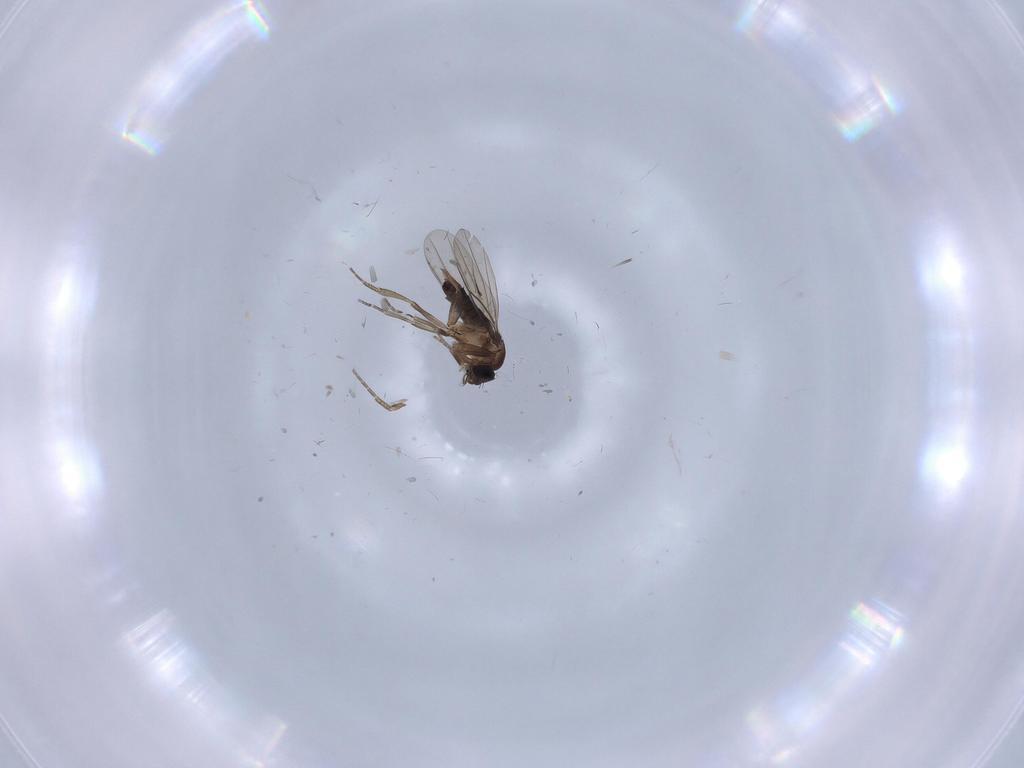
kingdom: Animalia
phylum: Arthropoda
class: Insecta
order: Diptera
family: Phoridae
